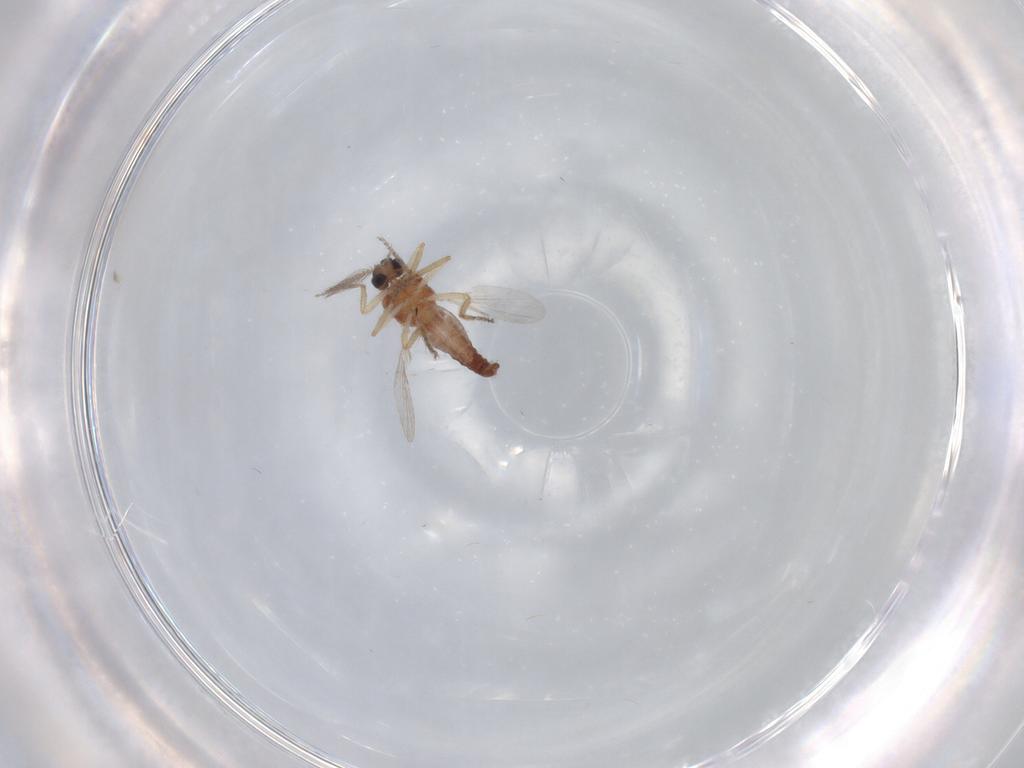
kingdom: Animalia
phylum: Arthropoda
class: Insecta
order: Diptera
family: Ceratopogonidae
